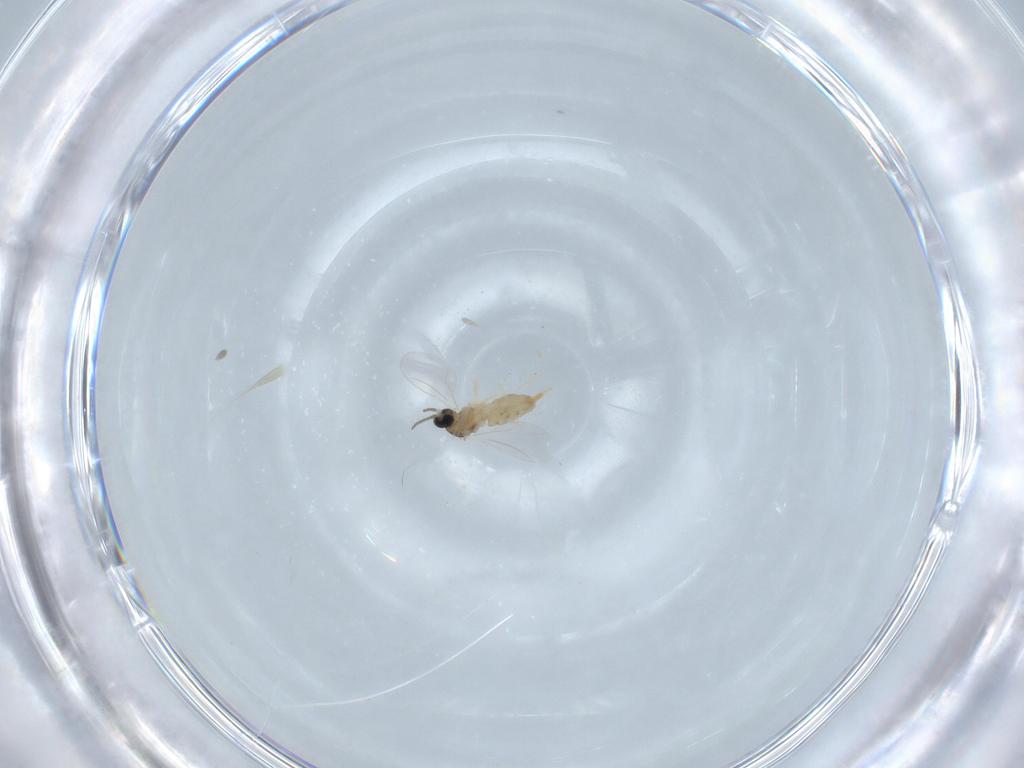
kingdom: Animalia
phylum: Arthropoda
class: Insecta
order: Diptera
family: Cecidomyiidae
